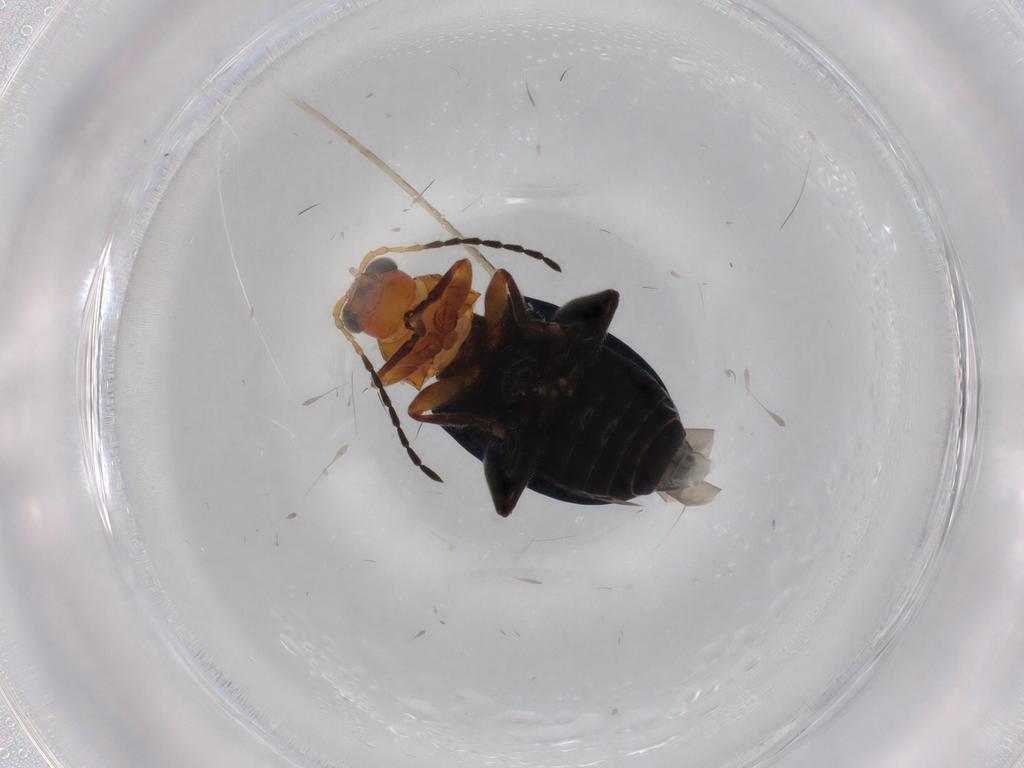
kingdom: Animalia
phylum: Arthropoda
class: Insecta
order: Coleoptera
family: Chrysomelidae
